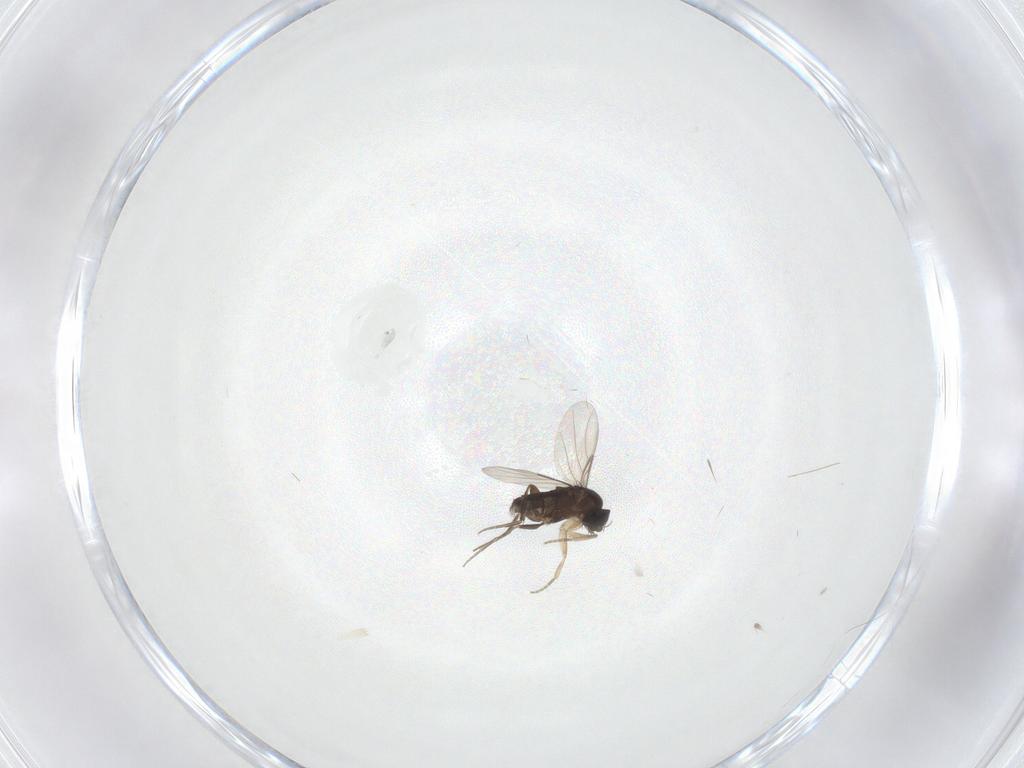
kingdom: Animalia
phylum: Arthropoda
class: Insecta
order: Diptera
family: Phoridae
